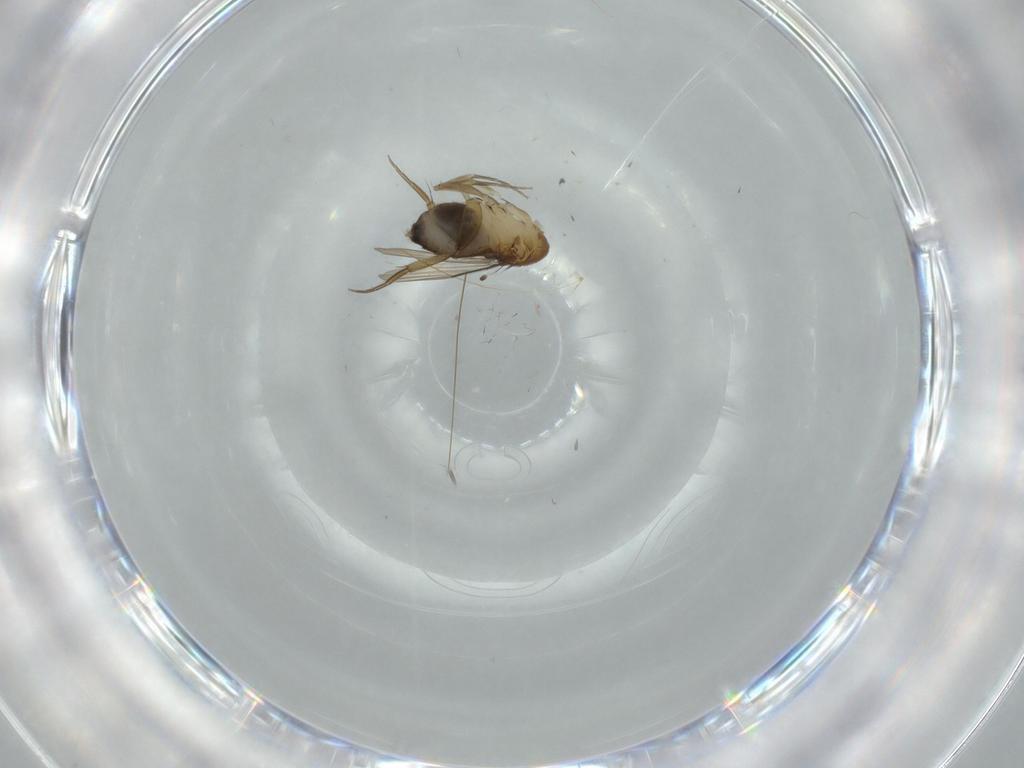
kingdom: Animalia
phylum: Arthropoda
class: Insecta
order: Diptera
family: Phoridae
